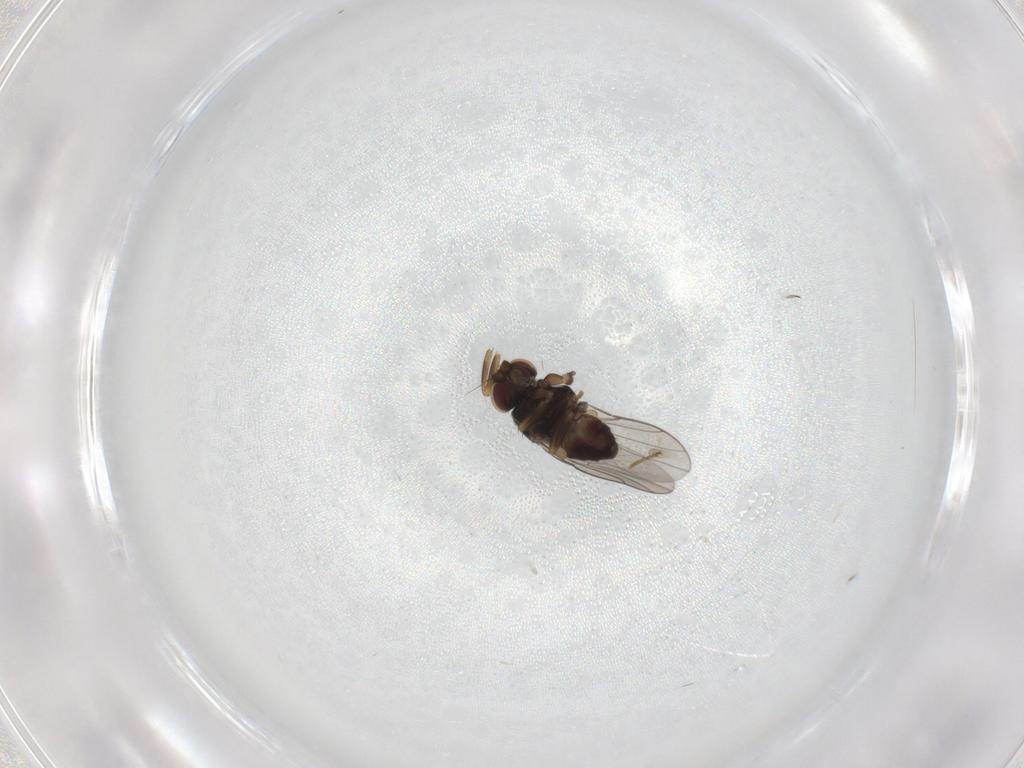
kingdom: Animalia
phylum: Arthropoda
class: Insecta
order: Diptera
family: Chloropidae
